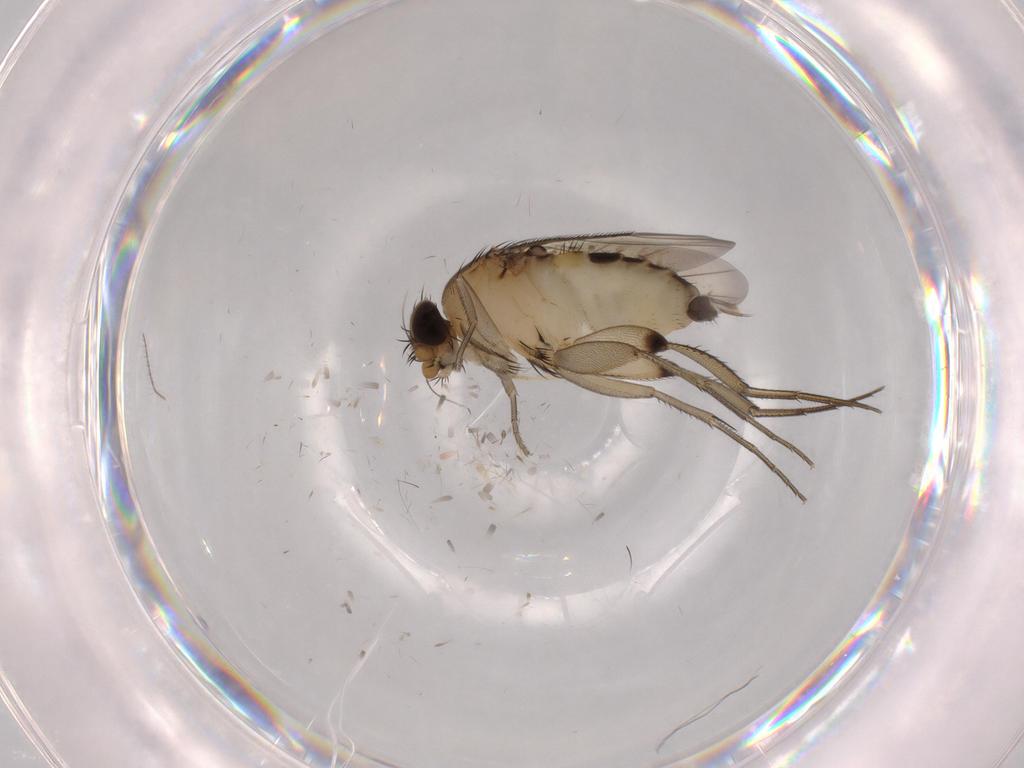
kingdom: Animalia
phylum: Arthropoda
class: Insecta
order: Diptera
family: Phoridae
